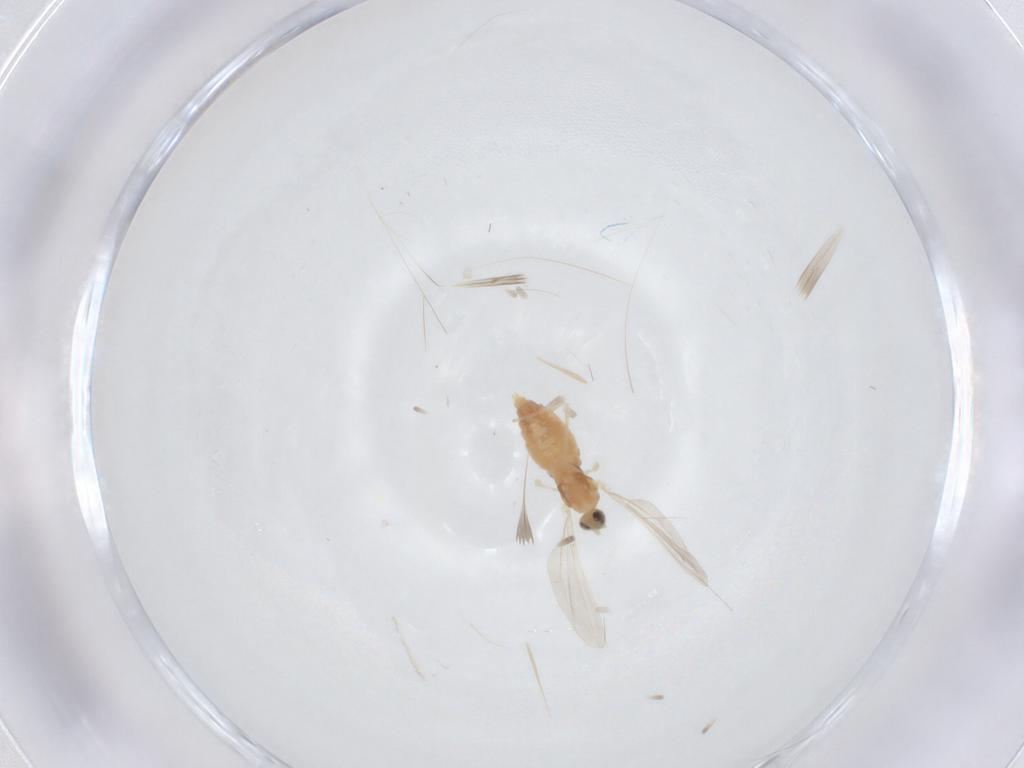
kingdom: Animalia
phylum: Arthropoda
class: Insecta
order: Diptera
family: Cecidomyiidae
